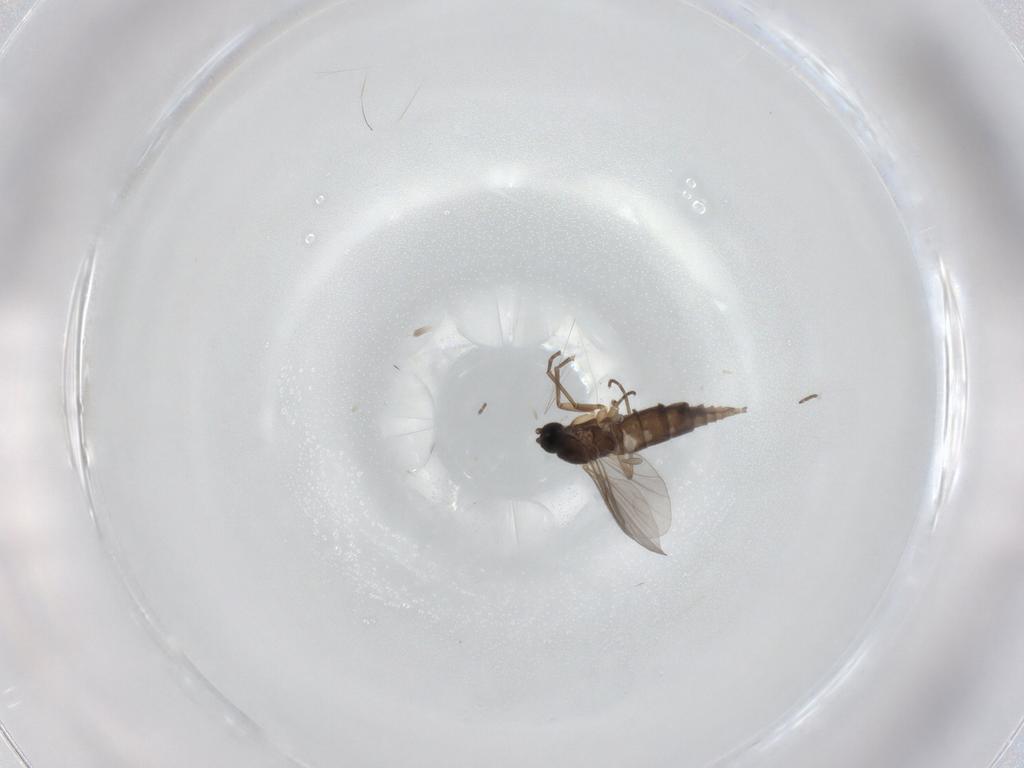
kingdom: Animalia
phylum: Arthropoda
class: Insecta
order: Diptera
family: Sciaridae
